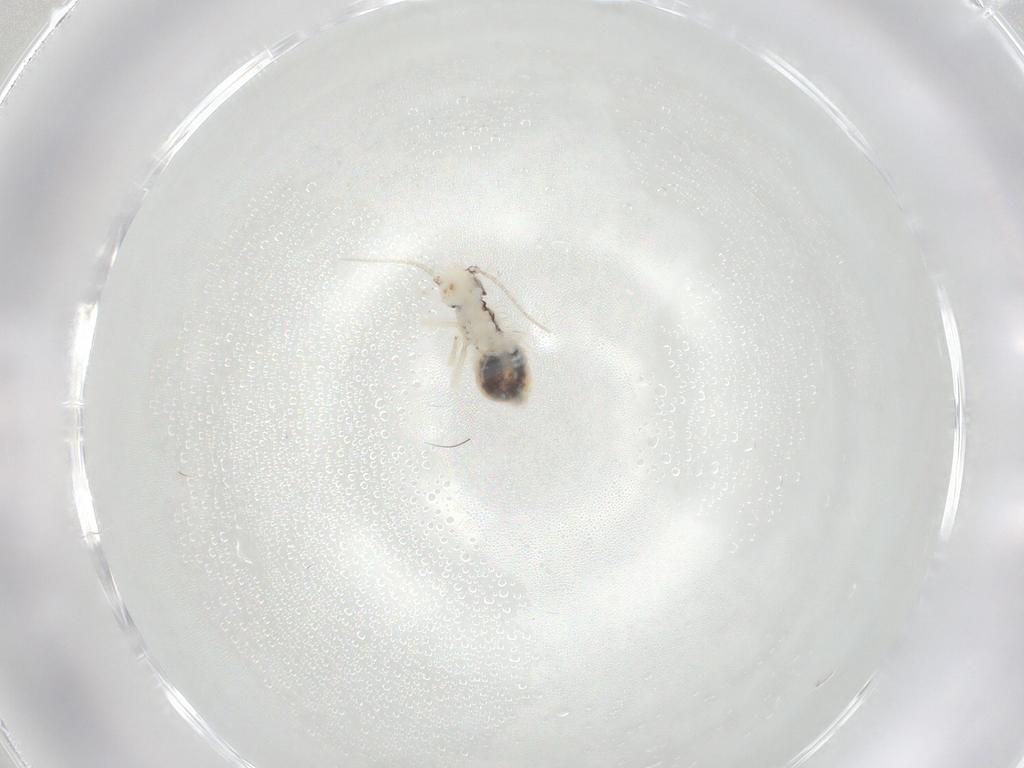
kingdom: Animalia
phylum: Arthropoda
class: Insecta
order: Psocodea
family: Philotarsidae
